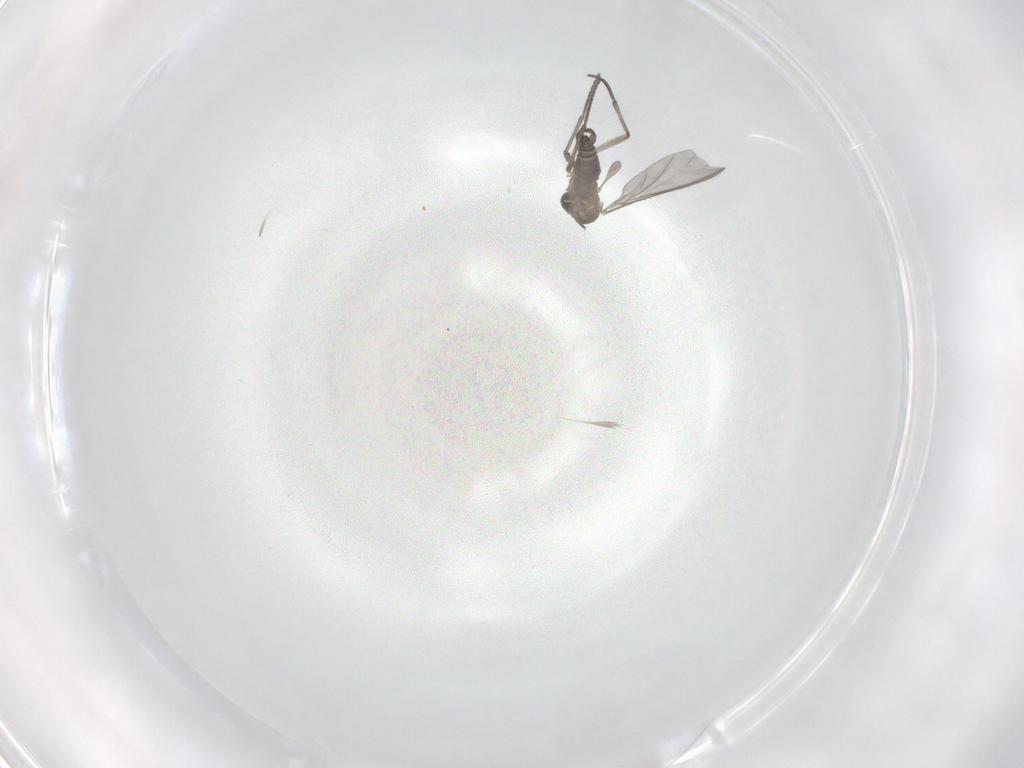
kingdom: Animalia
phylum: Arthropoda
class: Insecta
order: Diptera
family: Sciaridae
